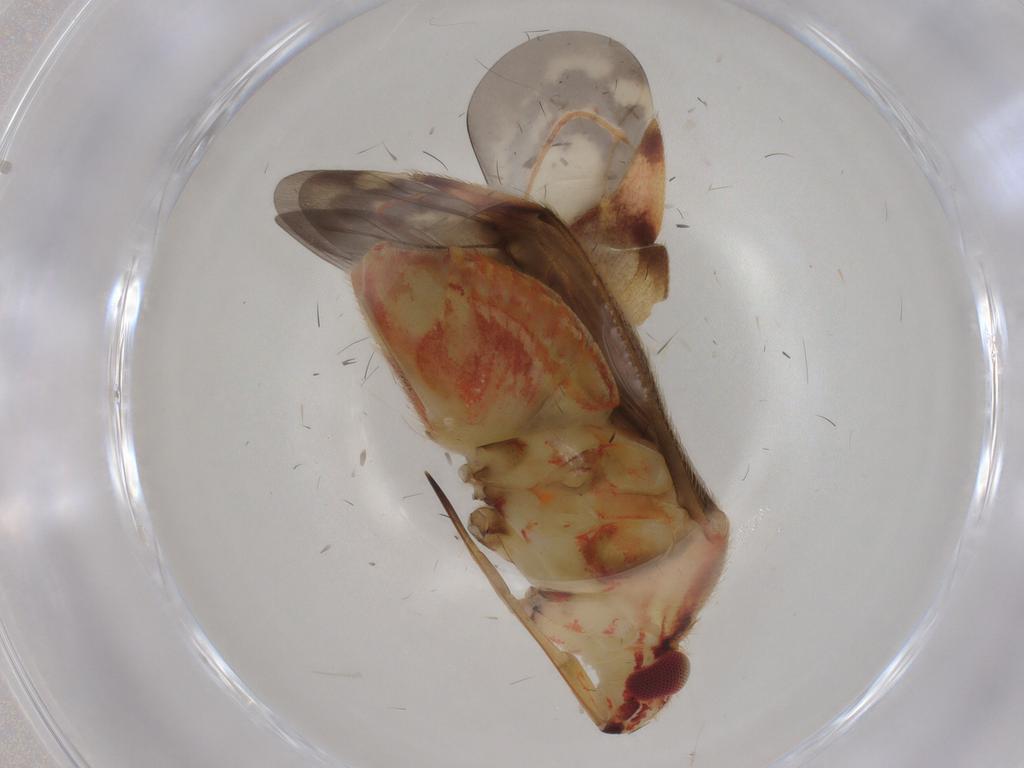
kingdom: Animalia
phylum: Arthropoda
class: Insecta
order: Hemiptera
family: Miridae
